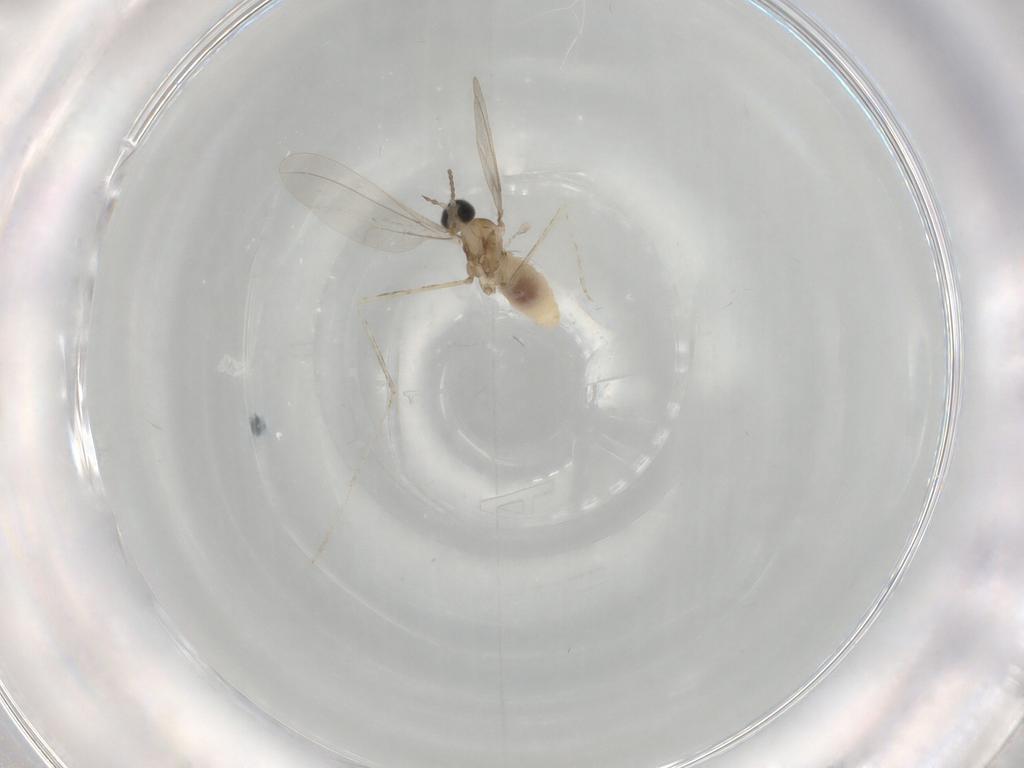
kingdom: Animalia
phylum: Arthropoda
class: Insecta
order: Diptera
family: Cecidomyiidae
